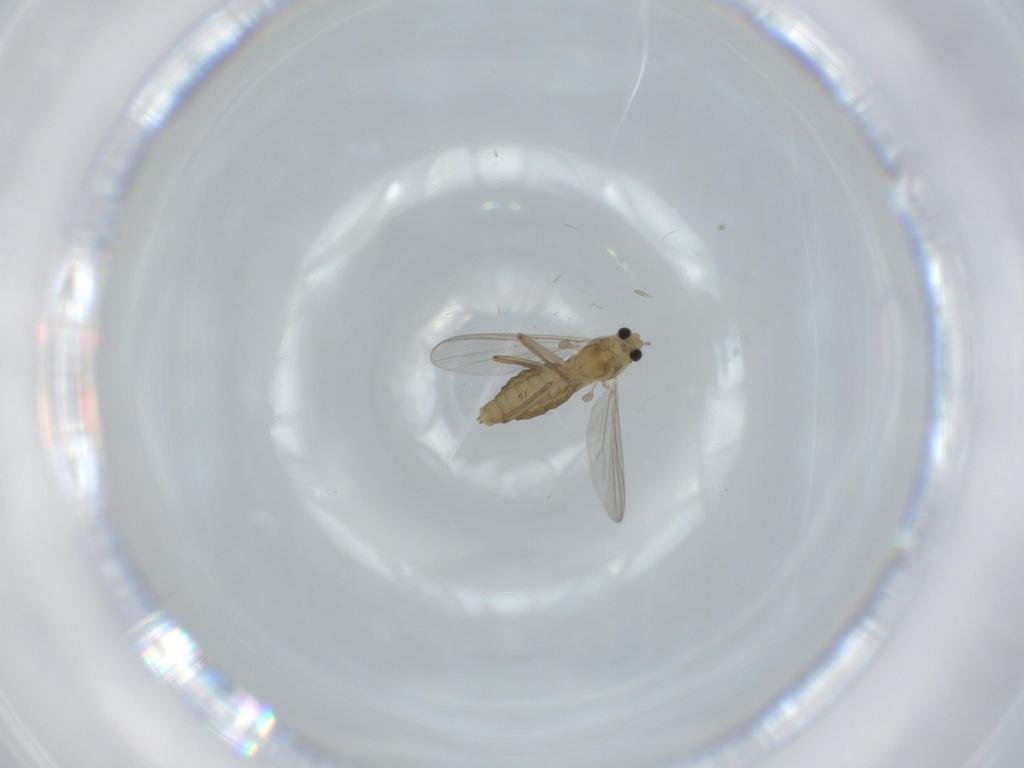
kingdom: Animalia
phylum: Arthropoda
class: Insecta
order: Diptera
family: Chironomidae
